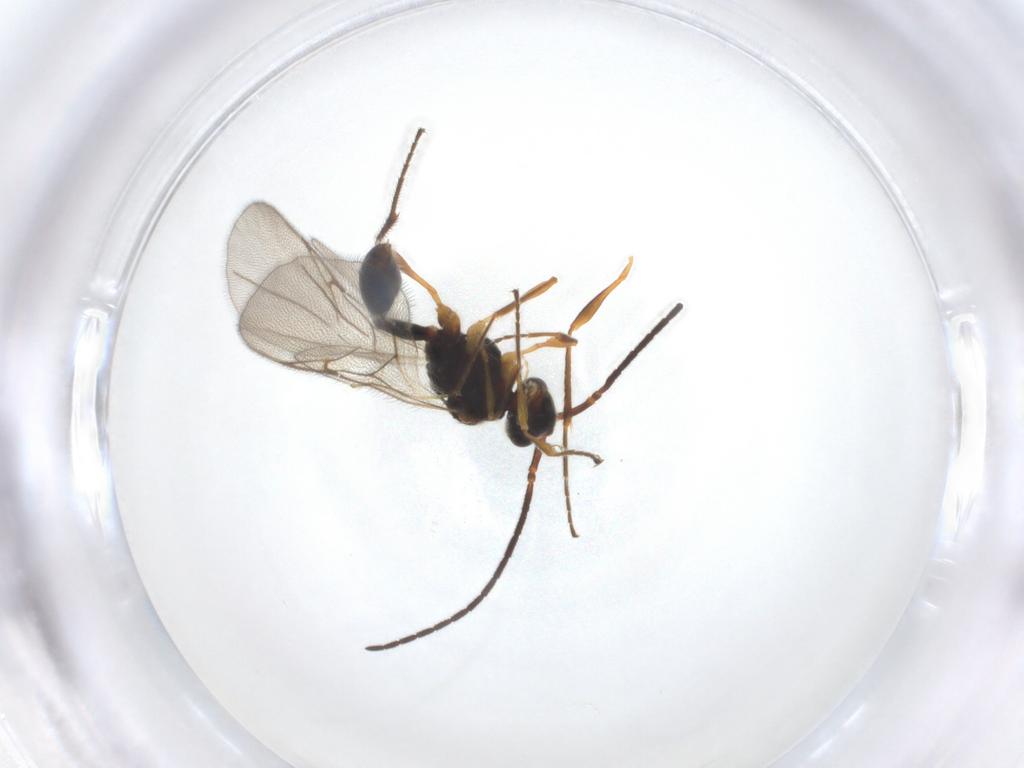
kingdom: Animalia
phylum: Arthropoda
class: Insecta
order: Hymenoptera
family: Diapriidae
